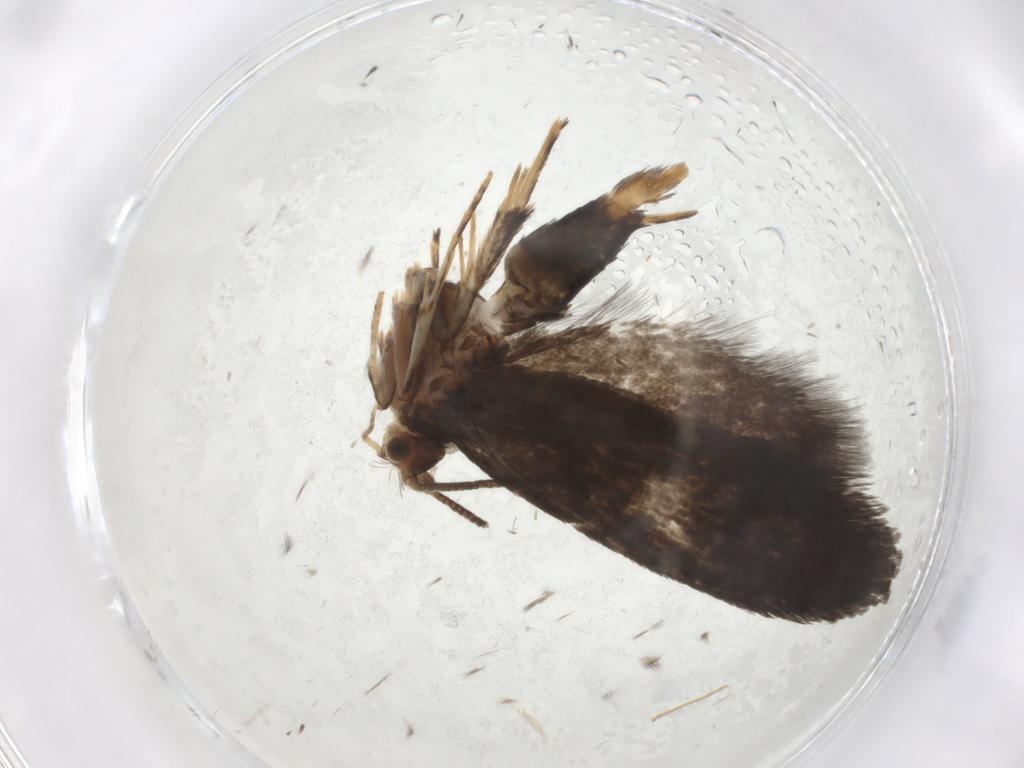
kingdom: Animalia
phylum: Arthropoda
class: Insecta
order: Lepidoptera
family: Tineidae
